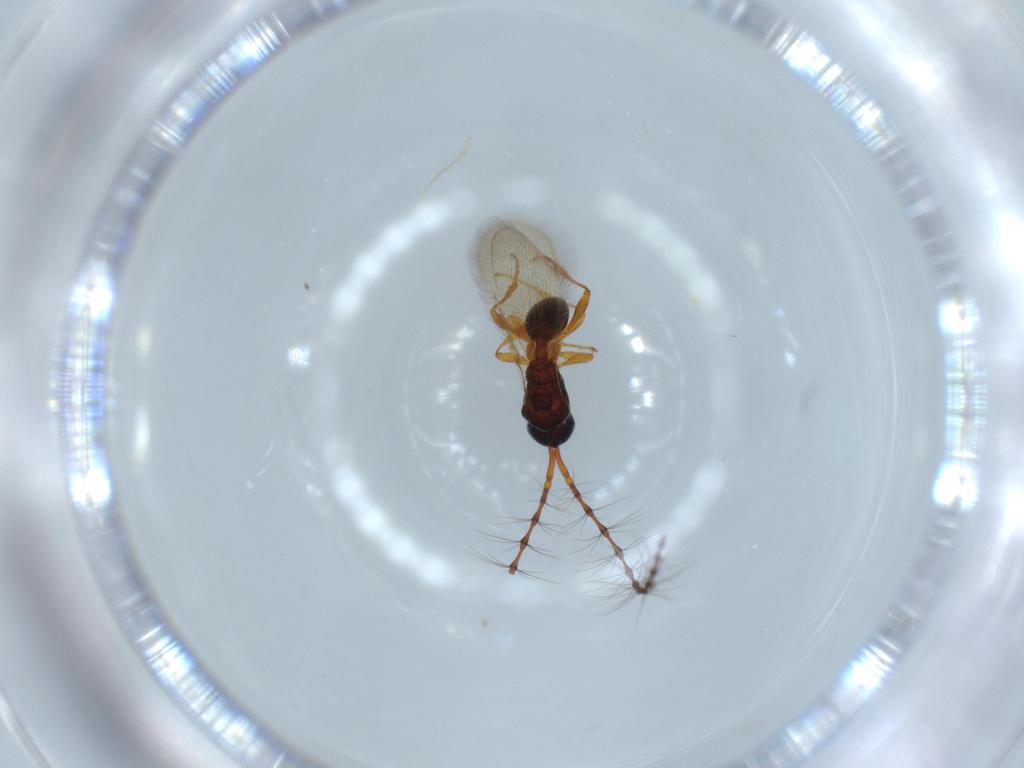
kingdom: Animalia
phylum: Arthropoda
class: Insecta
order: Hymenoptera
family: Diapriidae
